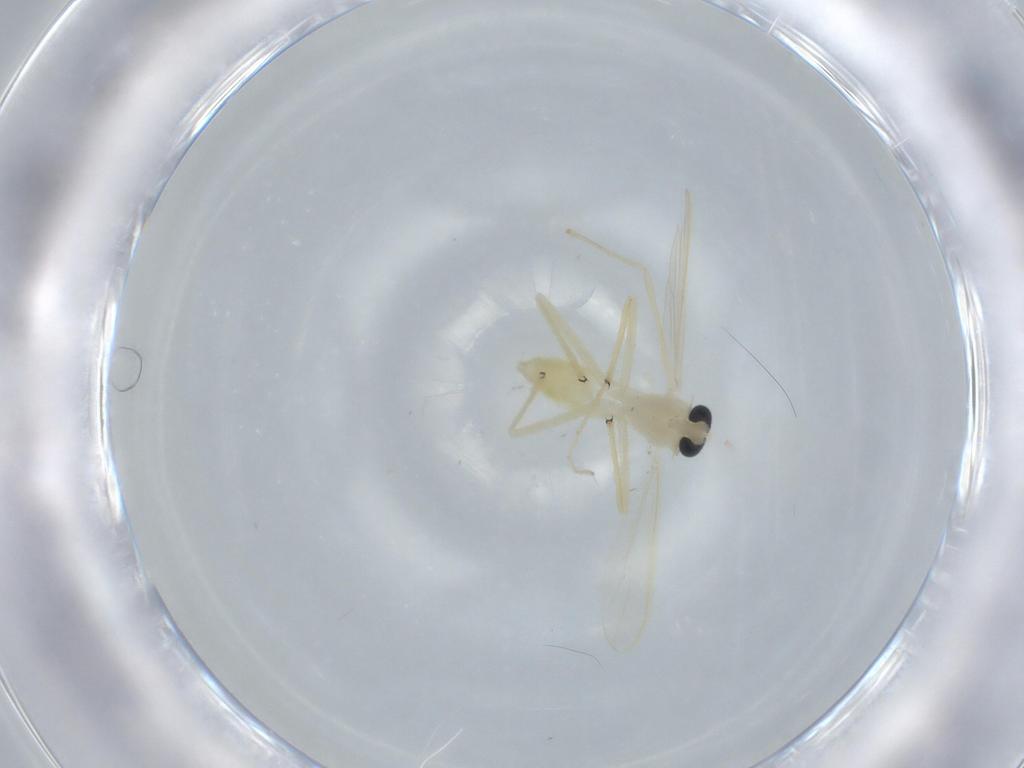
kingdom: Animalia
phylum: Arthropoda
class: Insecta
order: Diptera
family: Chironomidae
